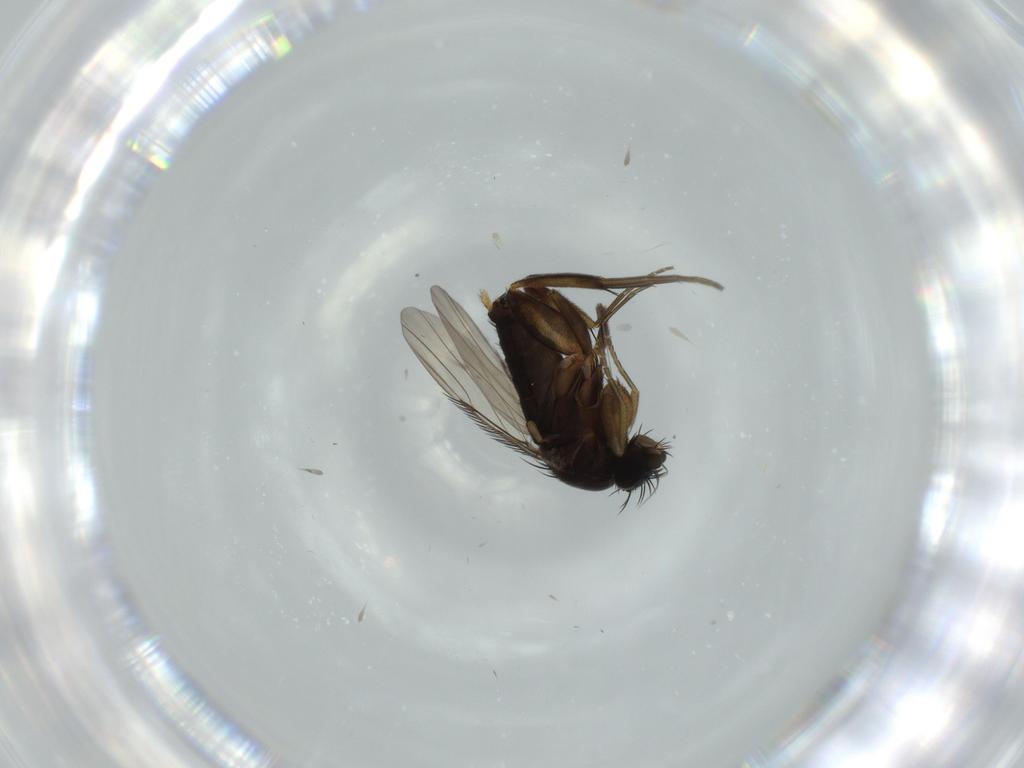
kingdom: Animalia
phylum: Arthropoda
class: Insecta
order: Diptera
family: Phoridae
